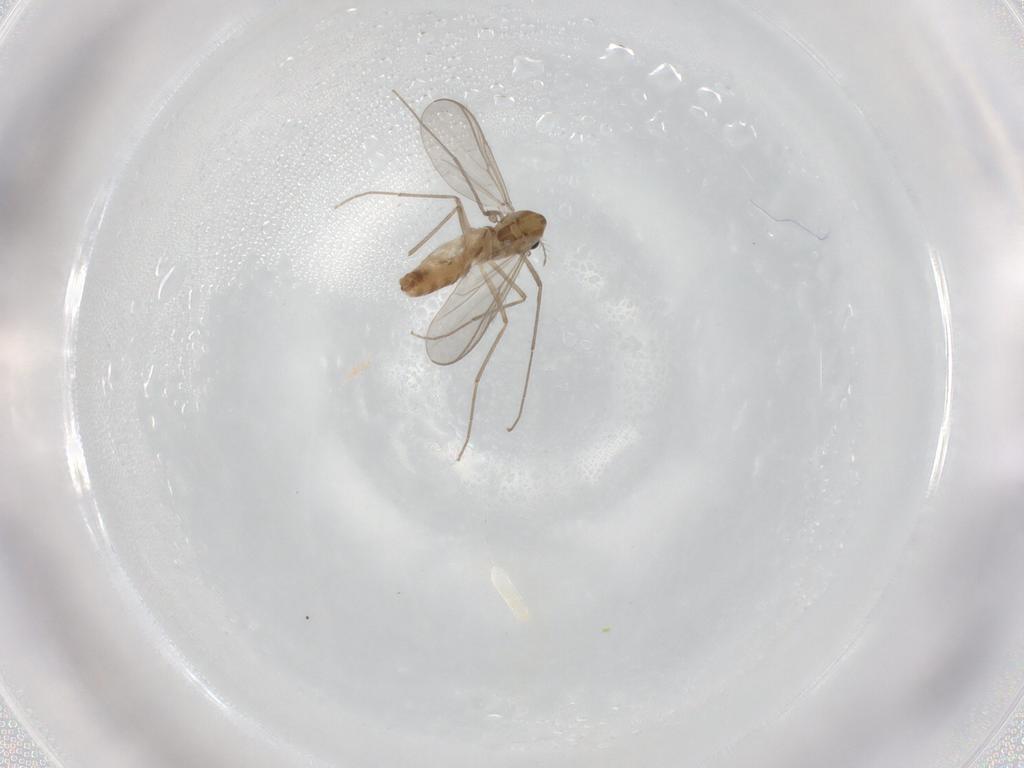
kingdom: Animalia
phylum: Arthropoda
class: Insecta
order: Diptera
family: Chironomidae
